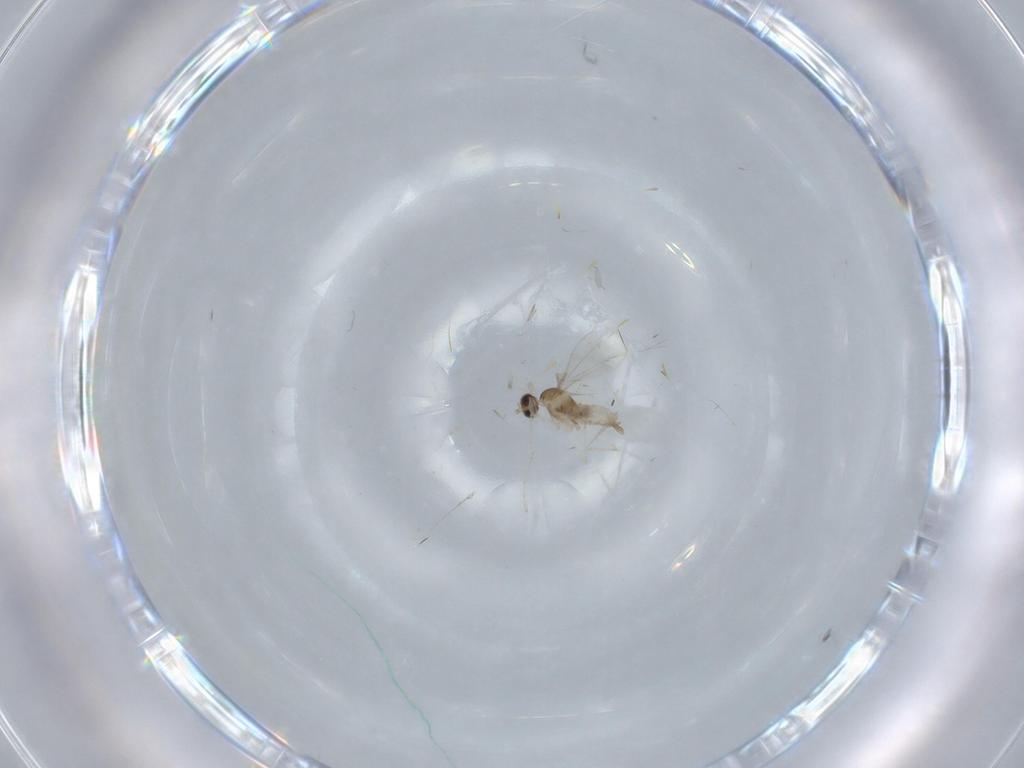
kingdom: Animalia
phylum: Arthropoda
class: Insecta
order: Diptera
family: Cecidomyiidae
